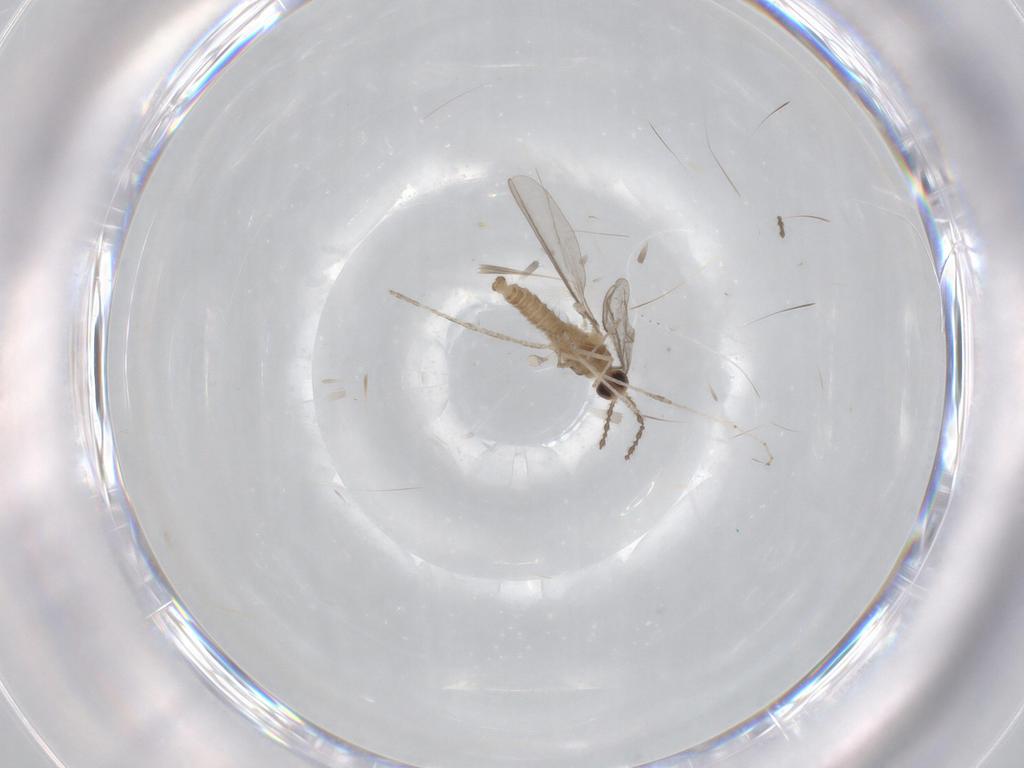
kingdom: Animalia
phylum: Arthropoda
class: Insecta
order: Diptera
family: Cecidomyiidae
